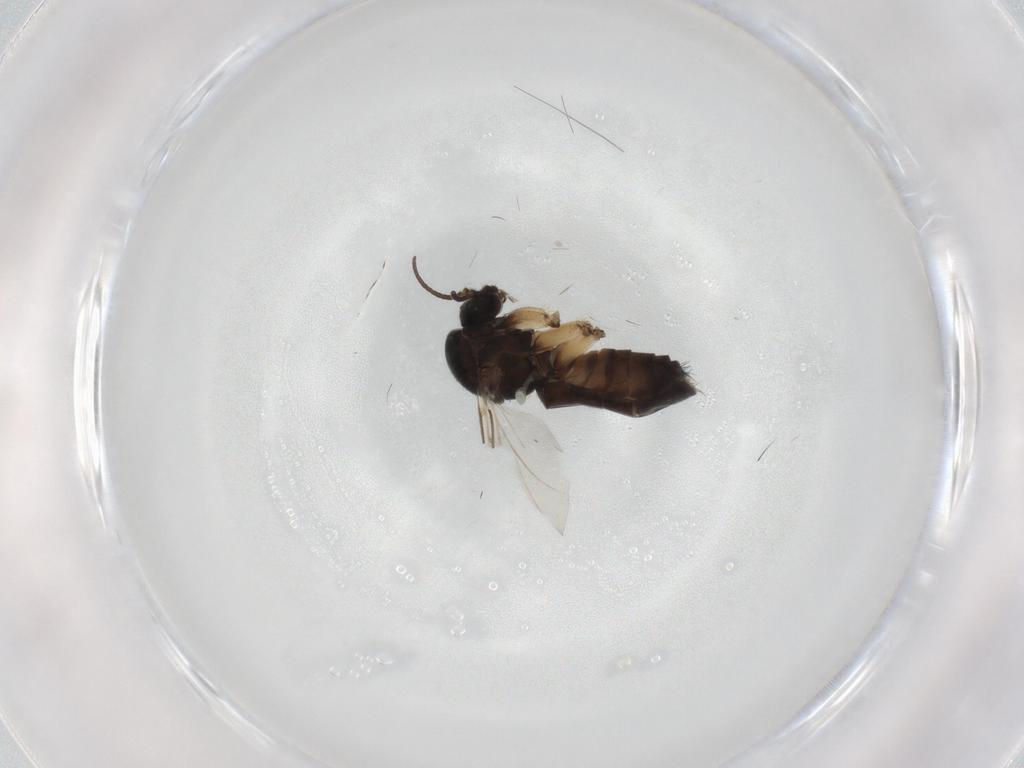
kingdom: Animalia
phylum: Arthropoda
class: Insecta
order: Diptera
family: Mycetophilidae
